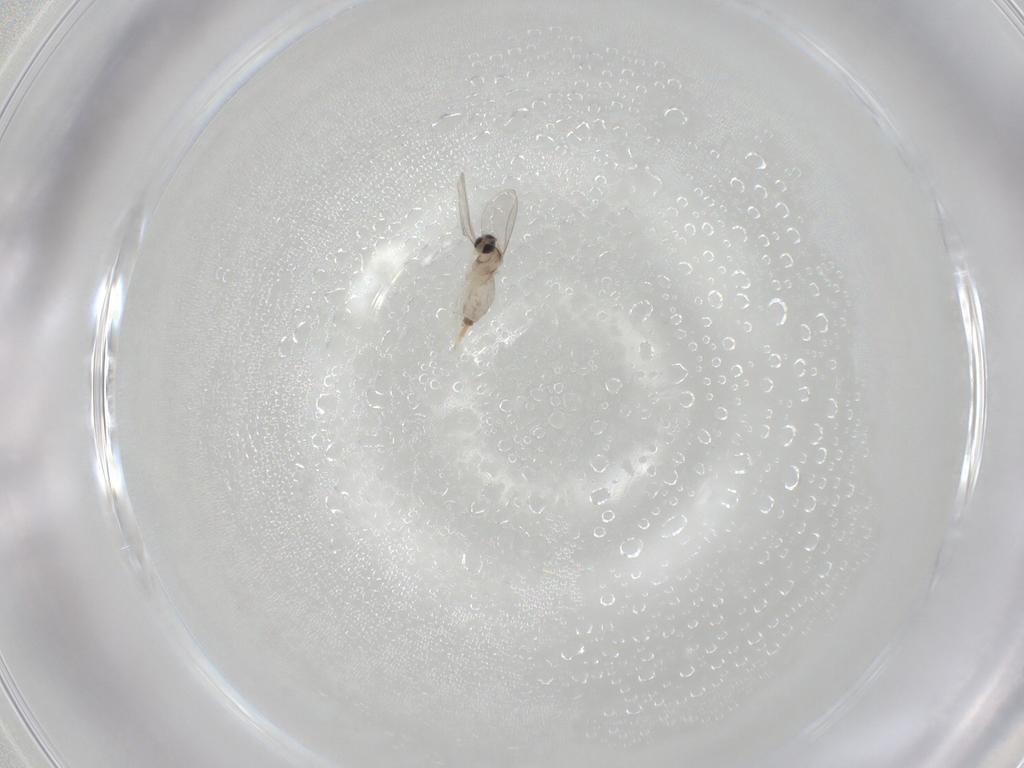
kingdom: Animalia
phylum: Arthropoda
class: Insecta
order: Diptera
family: Cecidomyiidae
